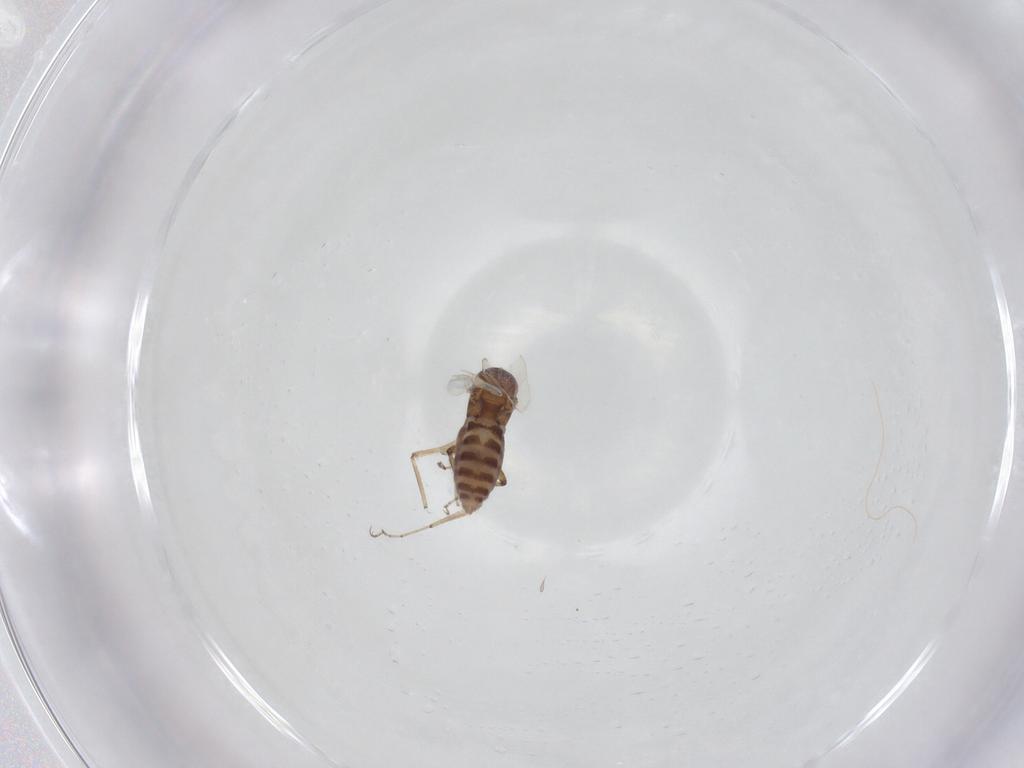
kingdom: Animalia
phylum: Arthropoda
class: Insecta
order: Diptera
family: Ceratopogonidae
